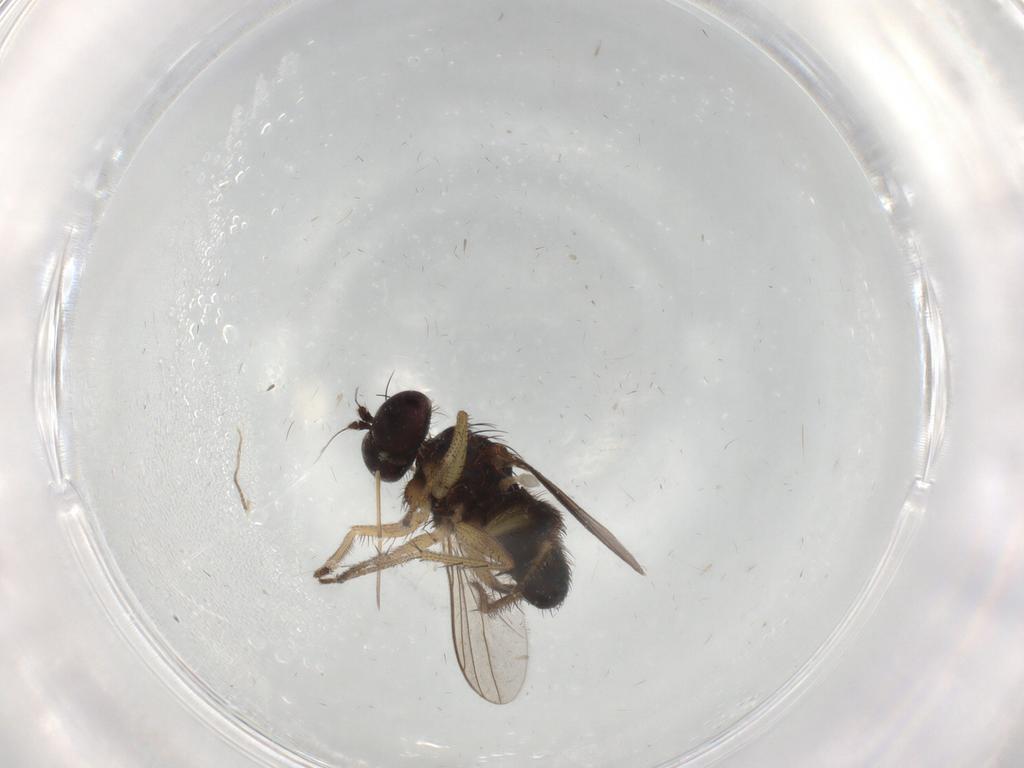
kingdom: Animalia
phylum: Arthropoda
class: Insecta
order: Diptera
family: Dolichopodidae
